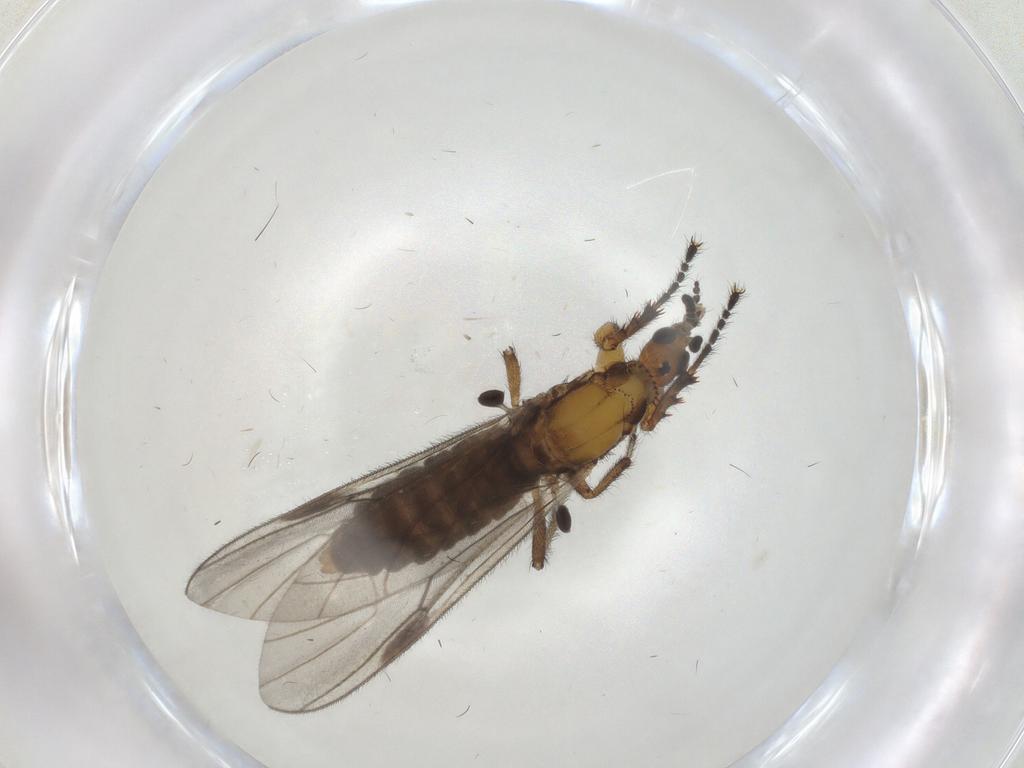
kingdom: Animalia
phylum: Arthropoda
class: Insecta
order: Diptera
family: Bibionidae
